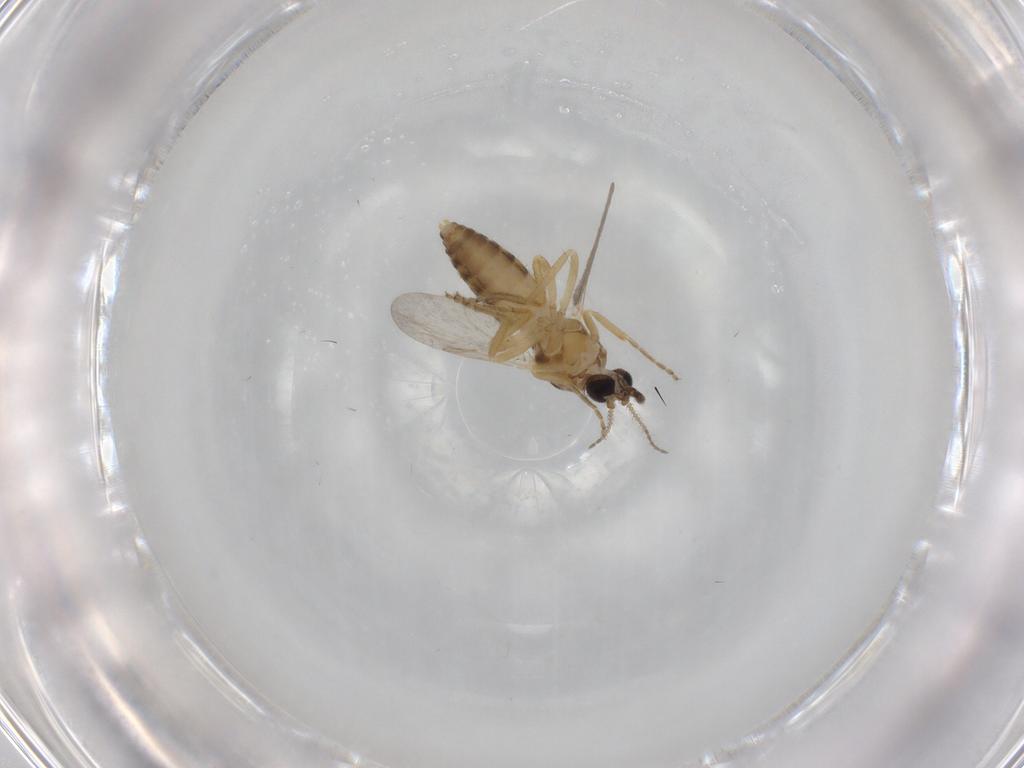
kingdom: Animalia
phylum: Arthropoda
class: Insecta
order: Diptera
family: Ceratopogonidae
